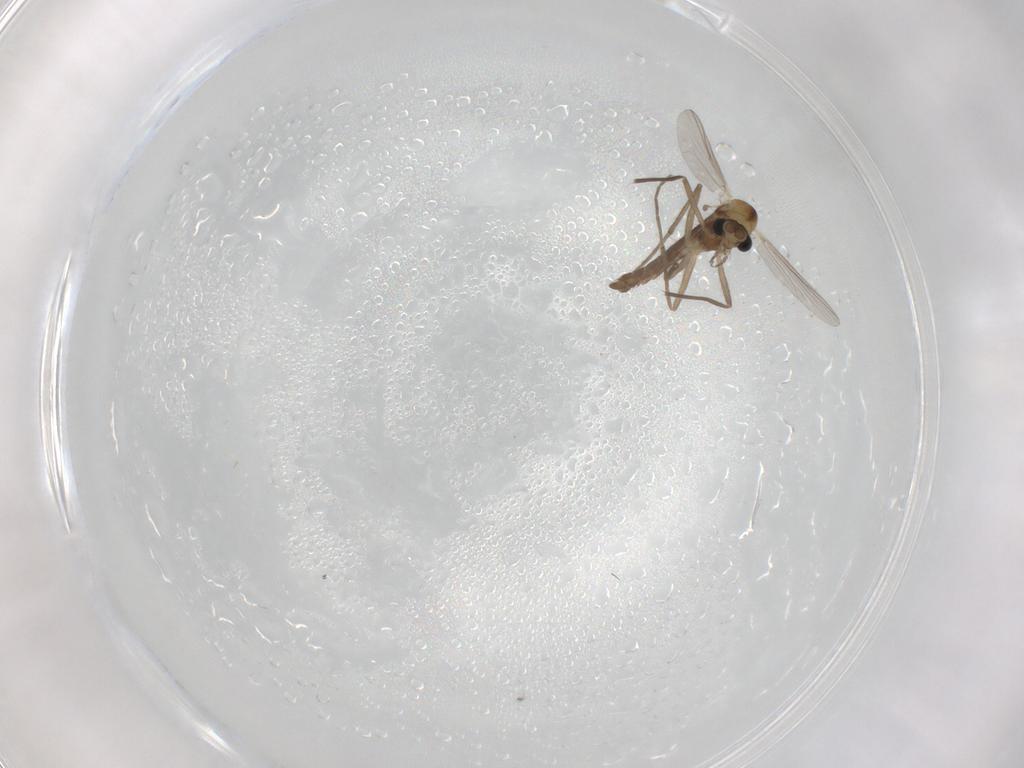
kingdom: Animalia
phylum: Arthropoda
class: Insecta
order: Diptera
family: Chironomidae
